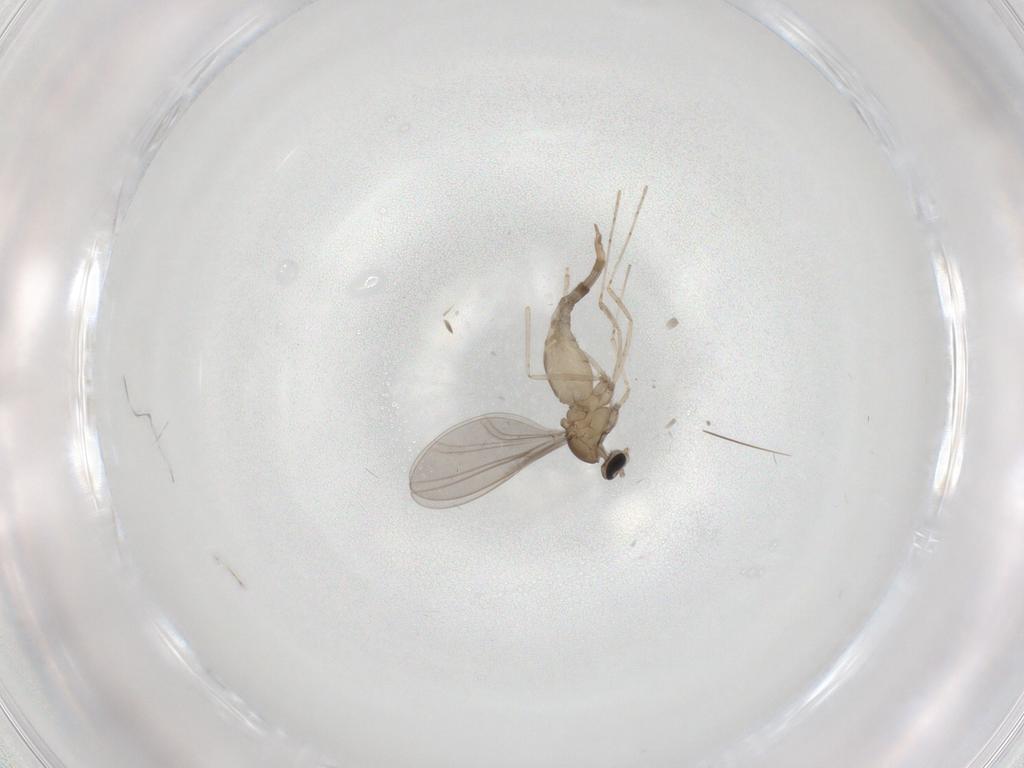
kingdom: Animalia
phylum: Arthropoda
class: Insecta
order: Diptera
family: Cecidomyiidae
